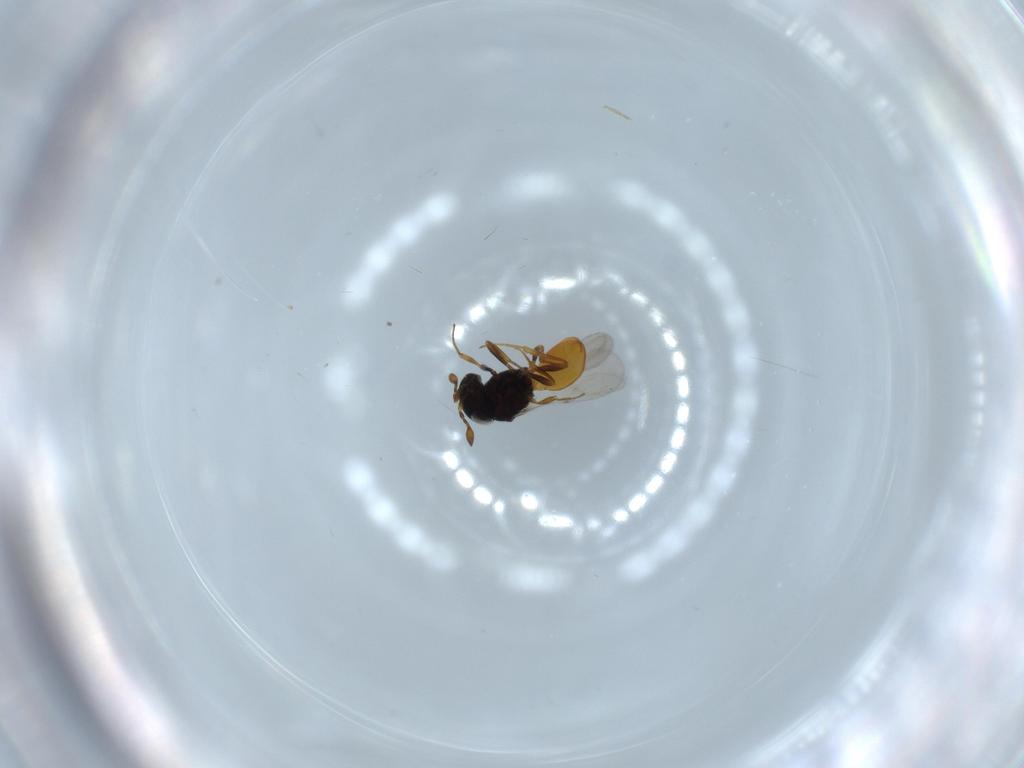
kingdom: Animalia
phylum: Arthropoda
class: Insecta
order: Hymenoptera
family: Scelionidae
